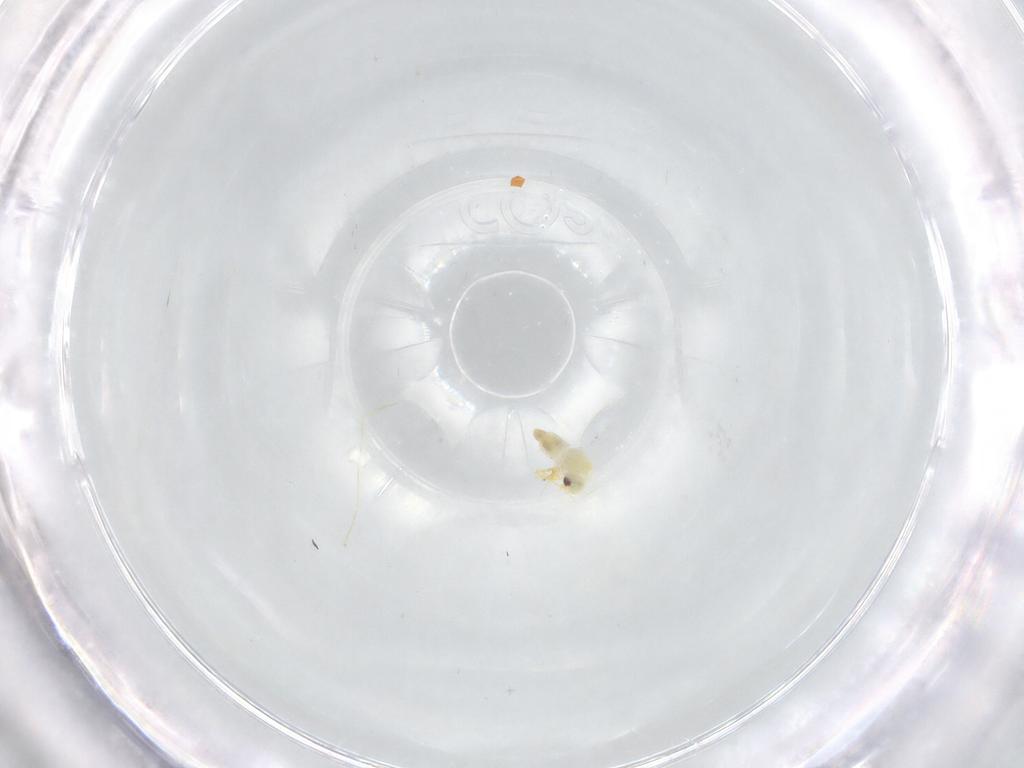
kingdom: Animalia
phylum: Arthropoda
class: Insecta
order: Hemiptera
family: Aleyrodidae
